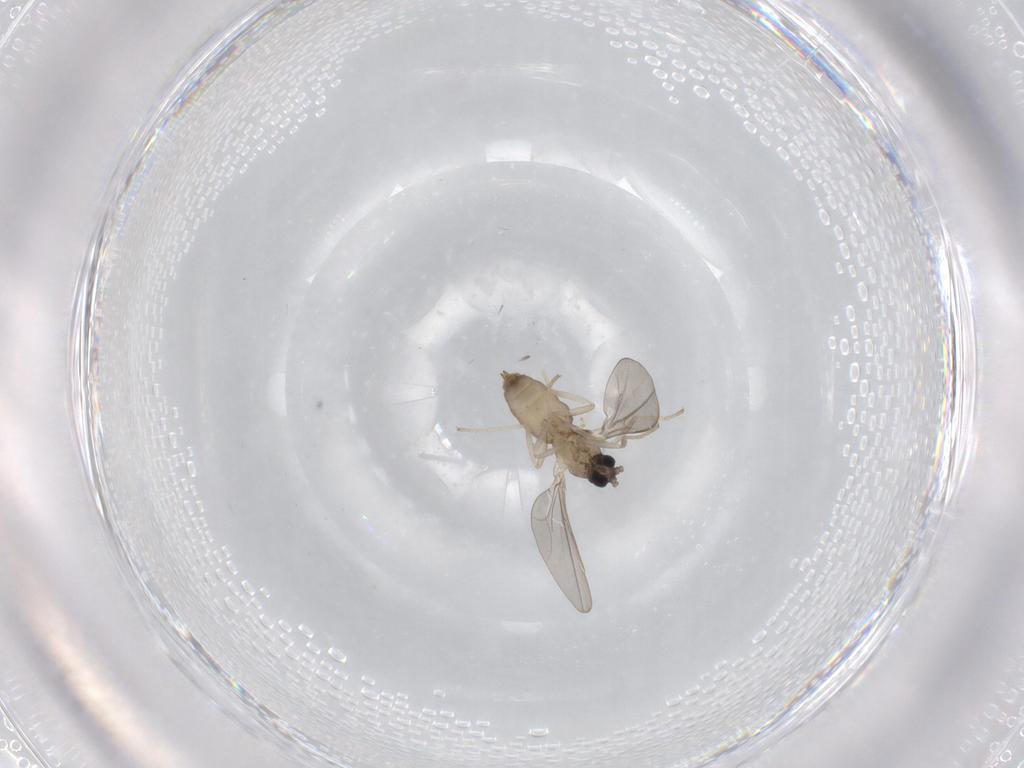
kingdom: Animalia
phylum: Arthropoda
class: Insecta
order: Diptera
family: Cecidomyiidae
